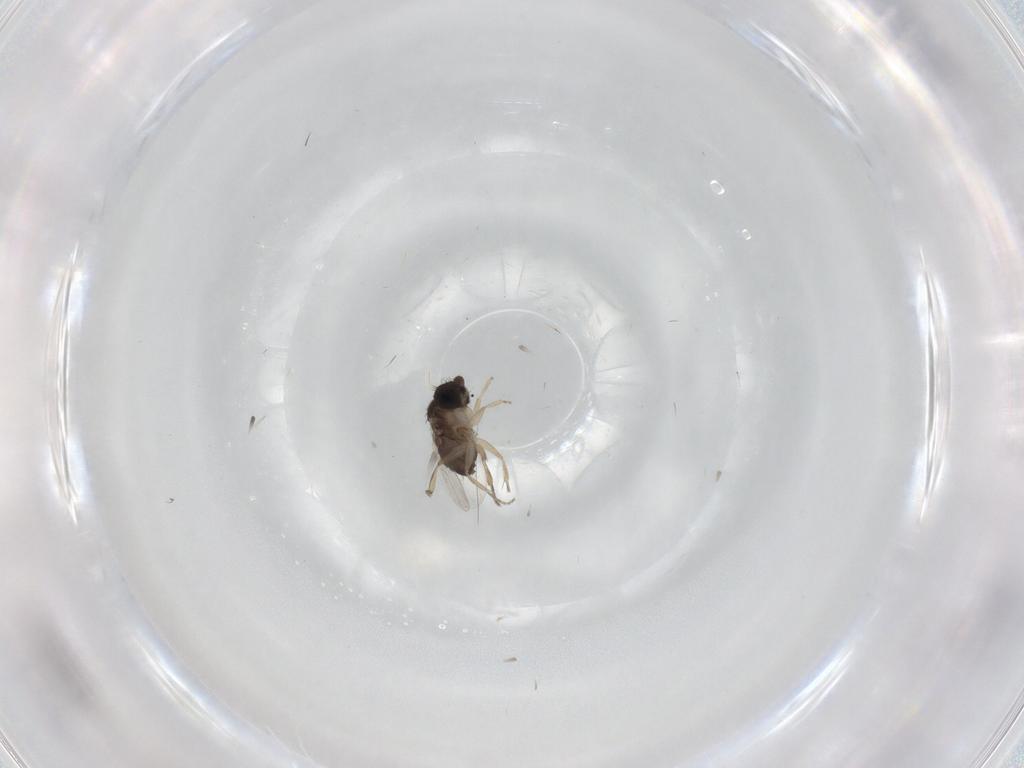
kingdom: Animalia
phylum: Arthropoda
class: Insecta
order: Diptera
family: Phoridae
